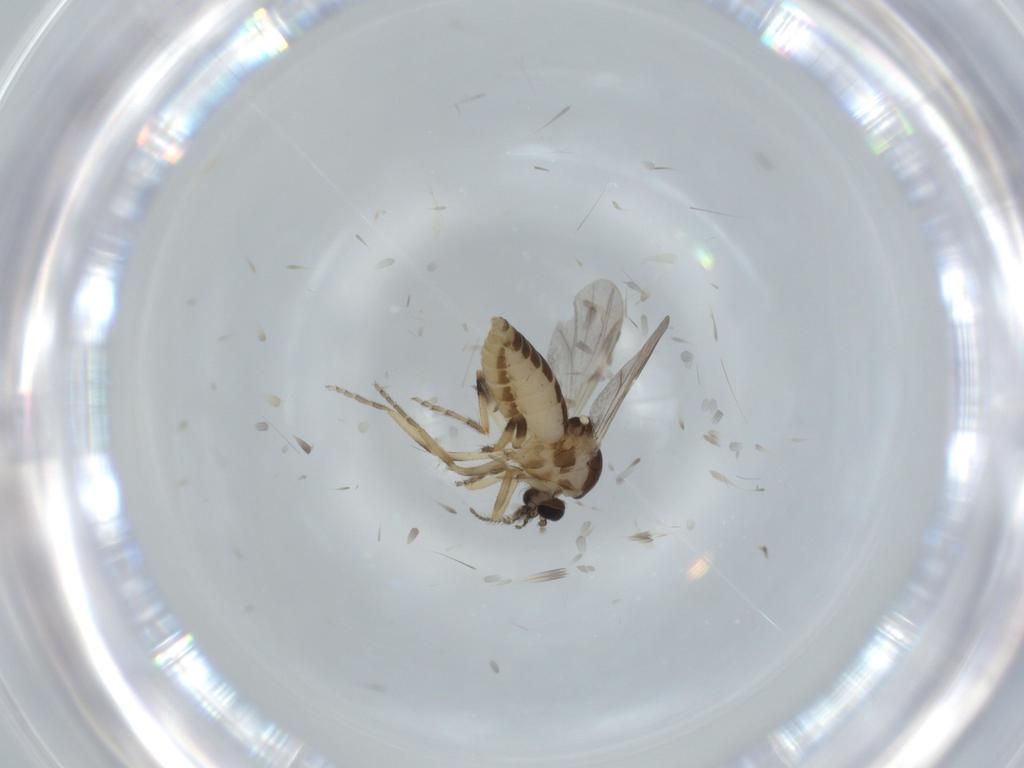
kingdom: Animalia
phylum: Arthropoda
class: Insecta
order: Diptera
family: Ceratopogonidae
